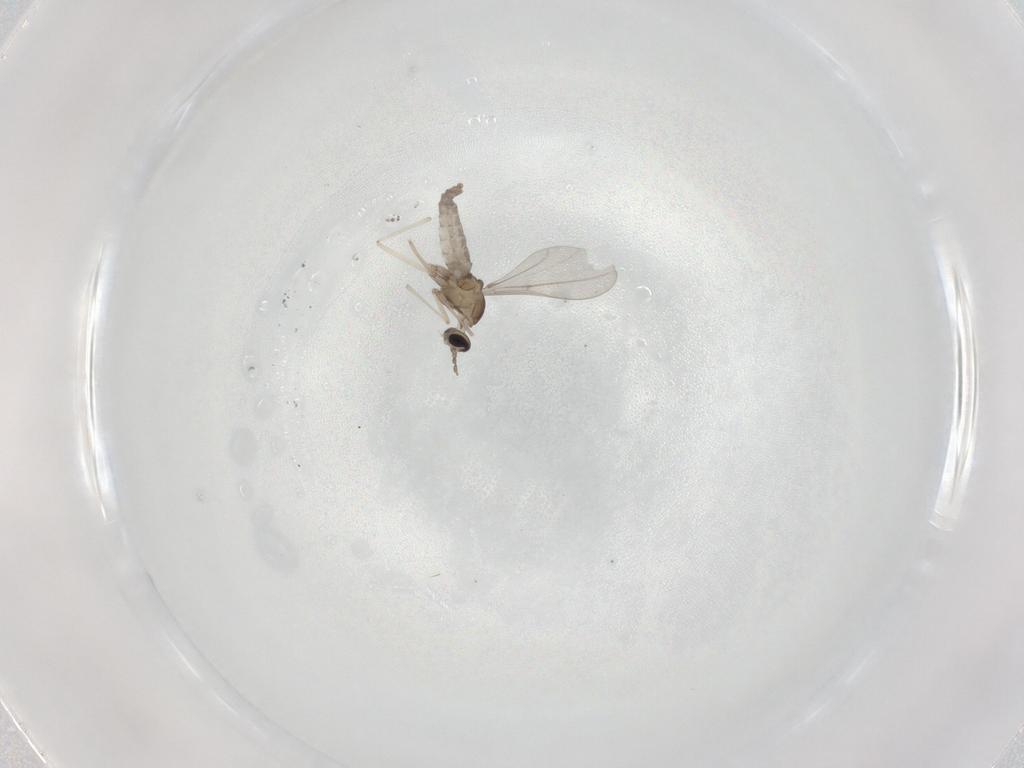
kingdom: Animalia
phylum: Arthropoda
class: Insecta
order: Diptera
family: Cecidomyiidae
